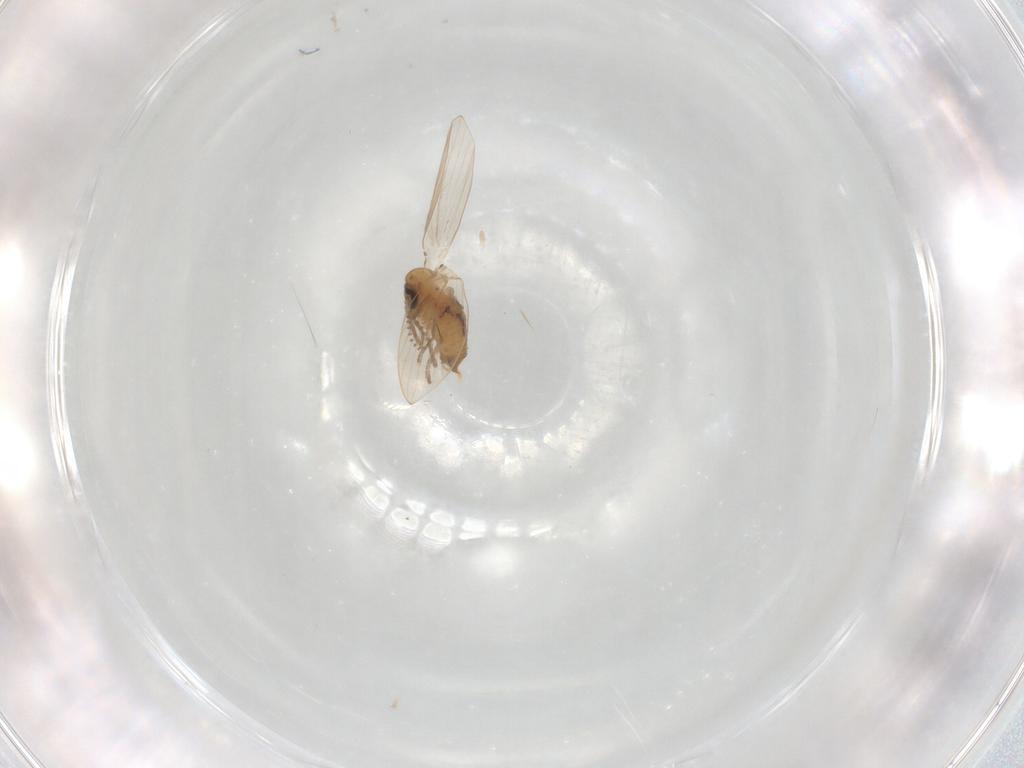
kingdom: Animalia
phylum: Arthropoda
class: Insecta
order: Diptera
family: Psychodidae
